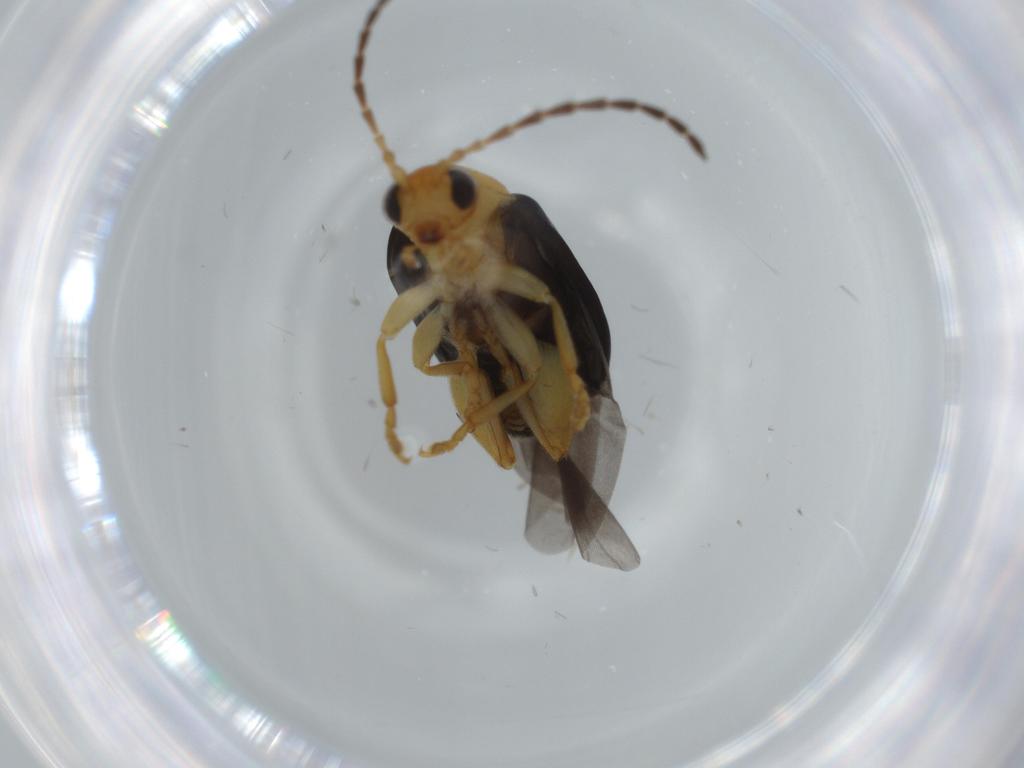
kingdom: Animalia
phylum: Arthropoda
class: Insecta
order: Coleoptera
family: Chrysomelidae
